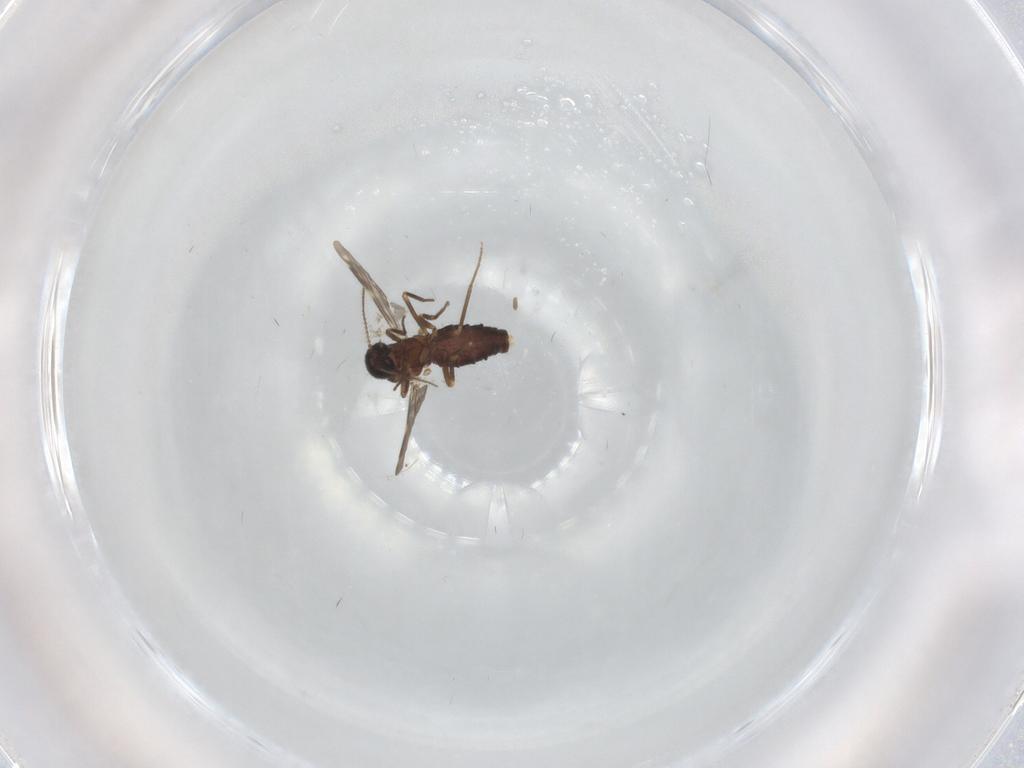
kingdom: Animalia
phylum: Arthropoda
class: Insecta
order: Diptera
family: Ceratopogonidae
